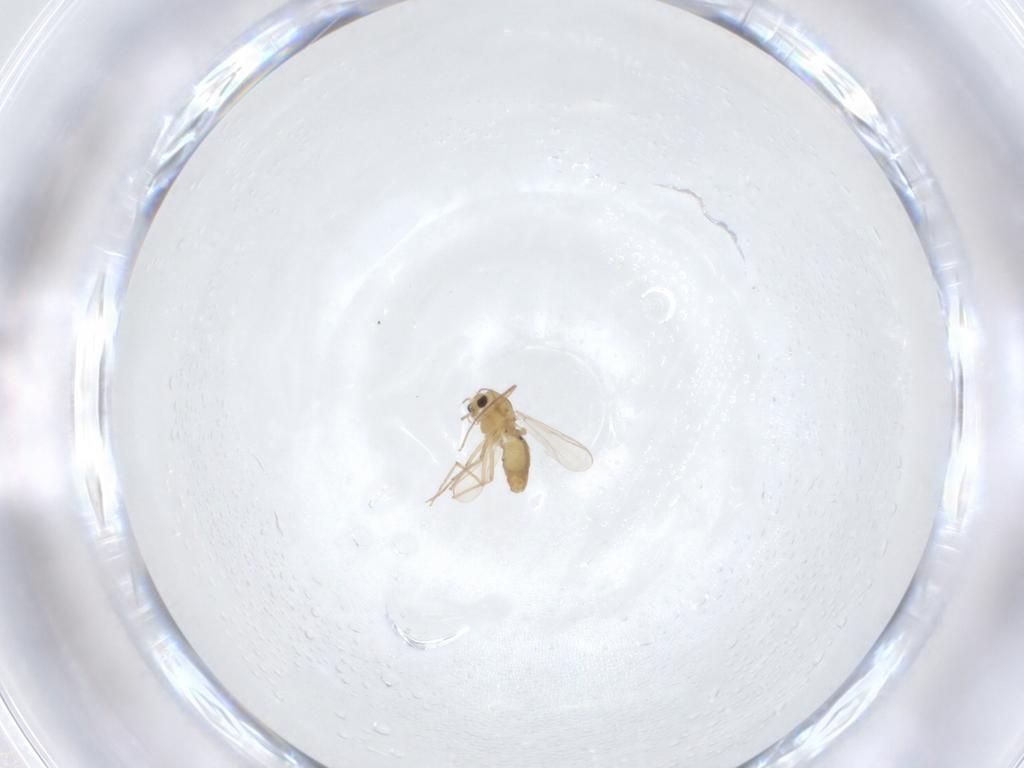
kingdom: Animalia
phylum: Arthropoda
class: Insecta
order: Diptera
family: Chironomidae
